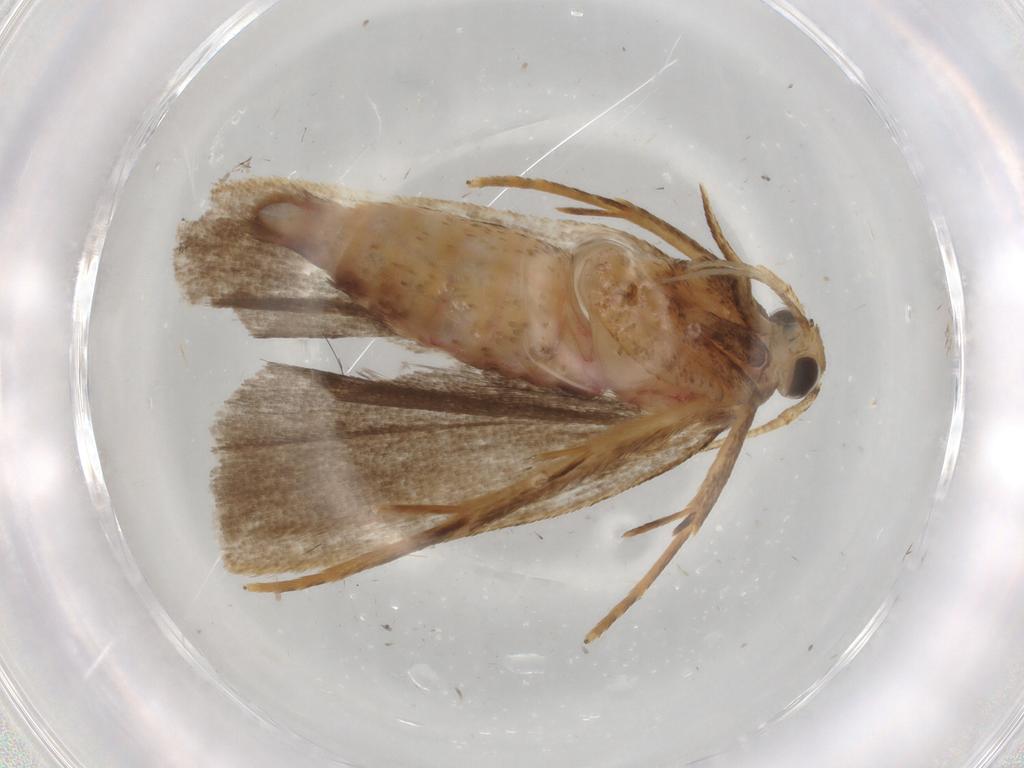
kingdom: Animalia
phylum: Arthropoda
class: Insecta
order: Lepidoptera
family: Autostichidae
